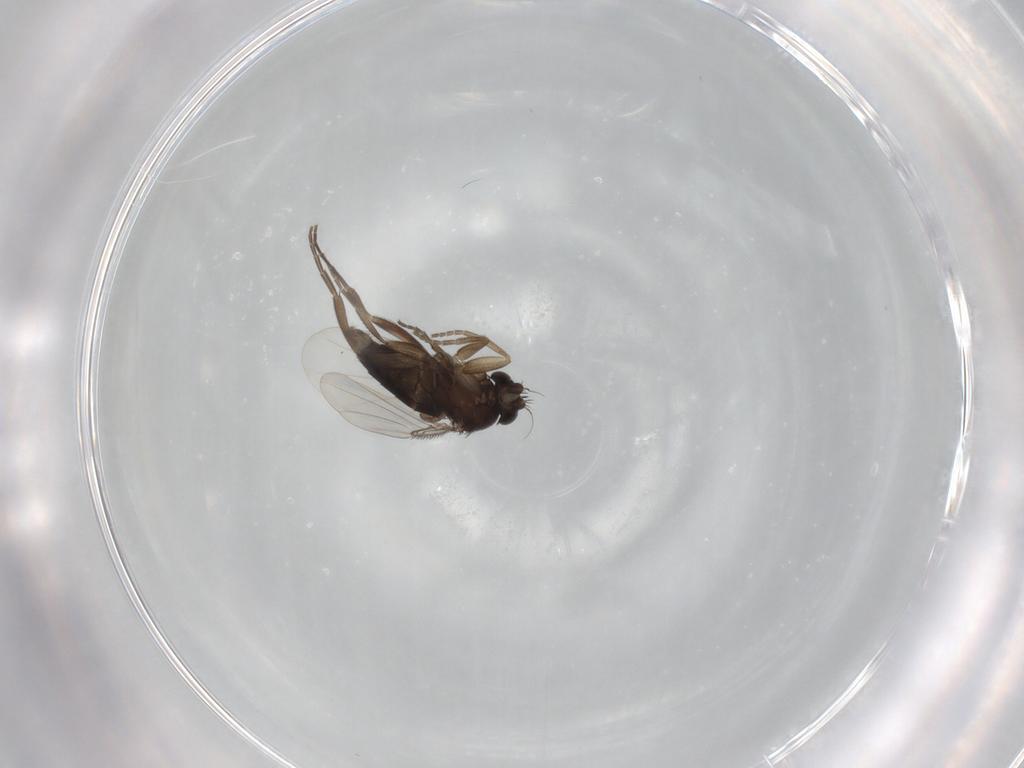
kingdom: Animalia
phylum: Arthropoda
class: Insecta
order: Diptera
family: Phoridae
